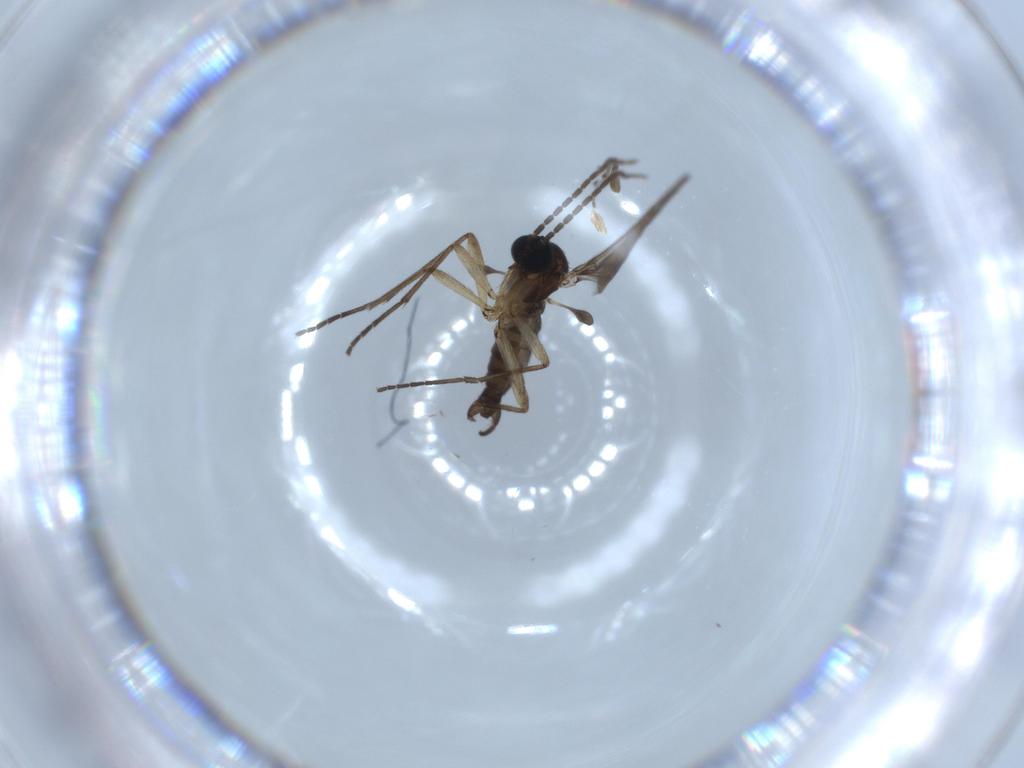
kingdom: Animalia
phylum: Arthropoda
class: Insecta
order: Diptera
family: Sciaridae
